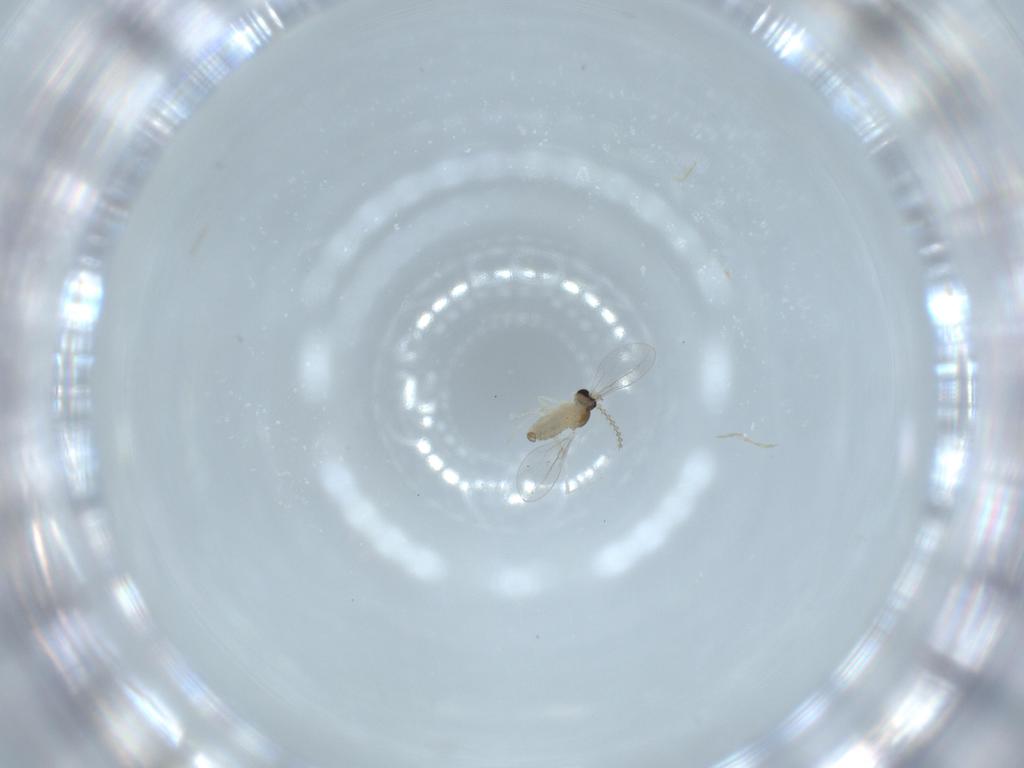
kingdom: Animalia
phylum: Arthropoda
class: Insecta
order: Diptera
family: Cecidomyiidae
